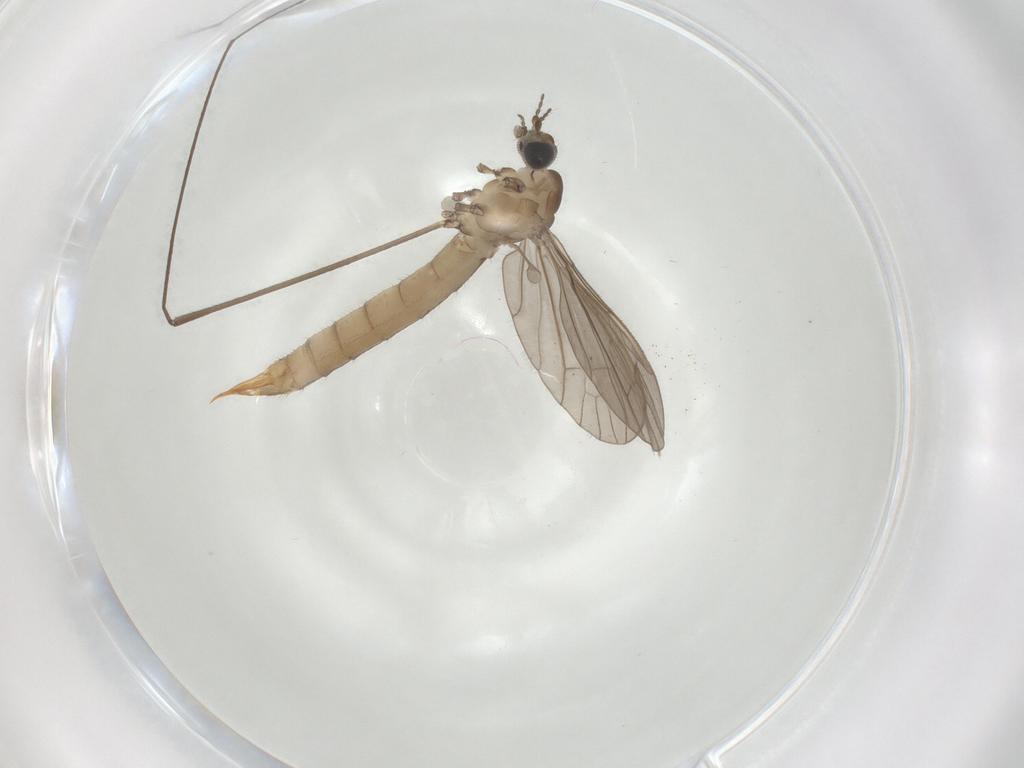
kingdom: Animalia
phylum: Arthropoda
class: Insecta
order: Diptera
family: Limoniidae
